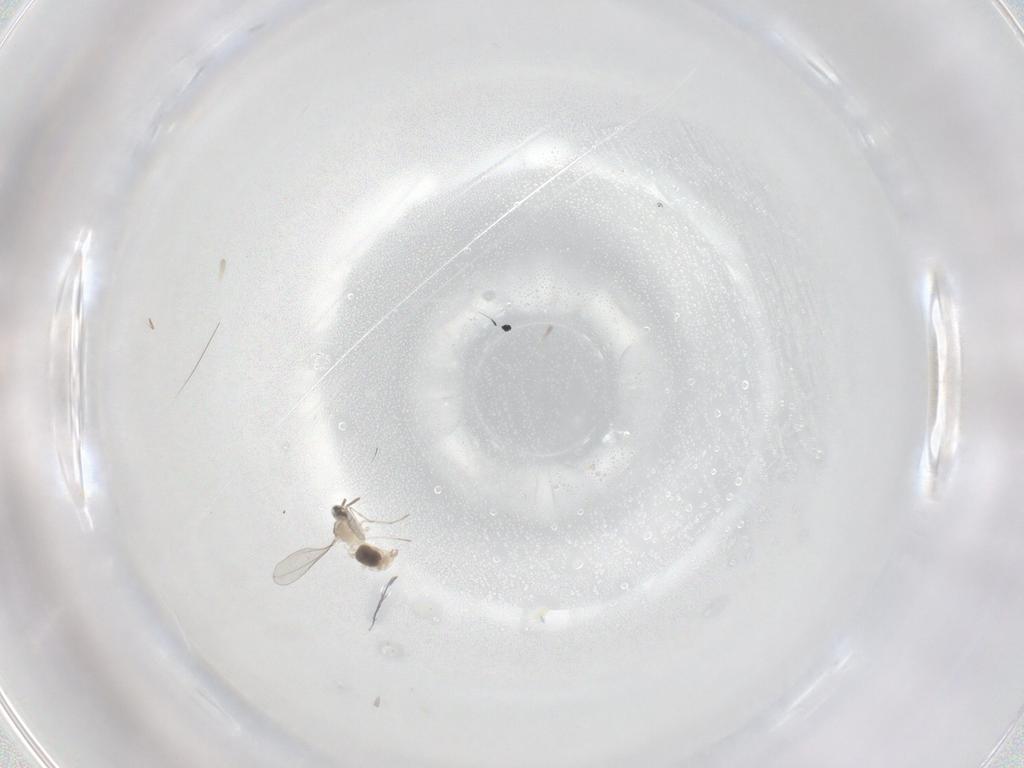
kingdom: Animalia
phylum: Arthropoda
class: Insecta
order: Diptera
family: Cecidomyiidae
